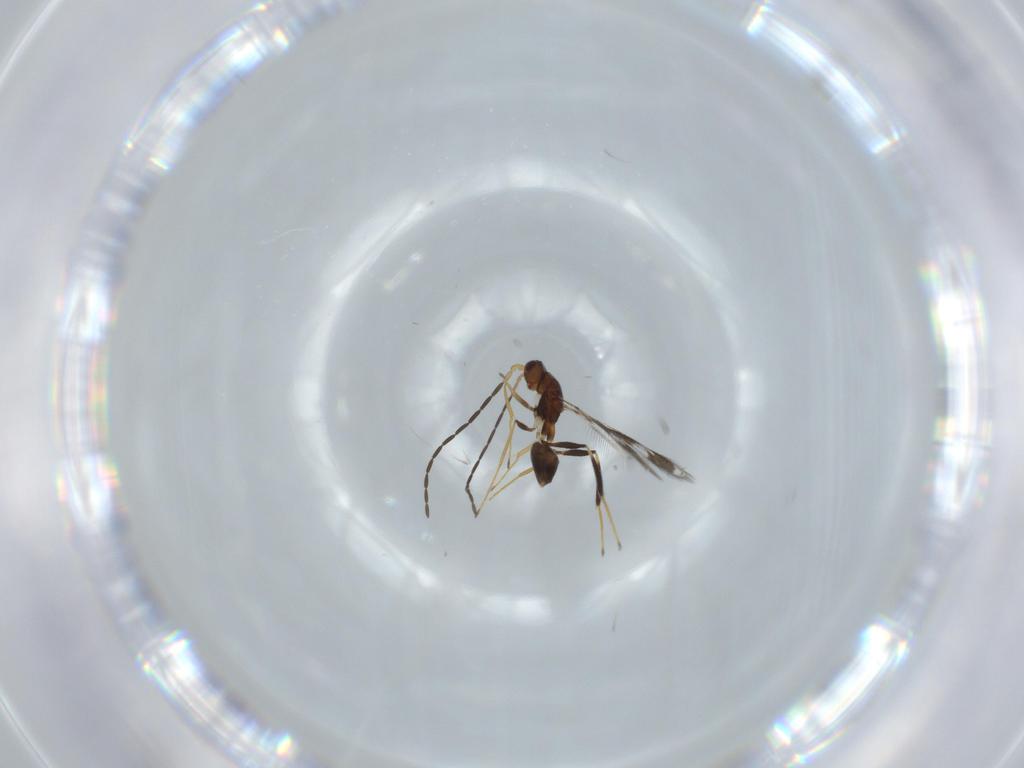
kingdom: Animalia
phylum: Arthropoda
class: Insecta
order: Hymenoptera
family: Mymaridae
